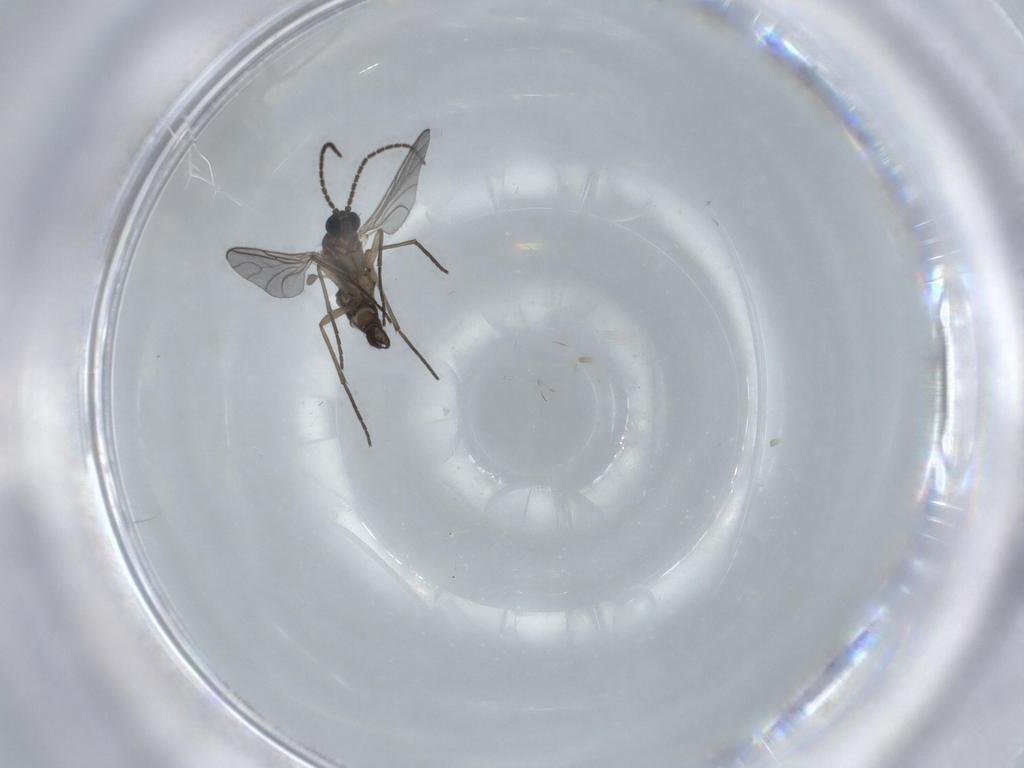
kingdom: Animalia
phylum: Arthropoda
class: Insecta
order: Diptera
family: Sciaridae
